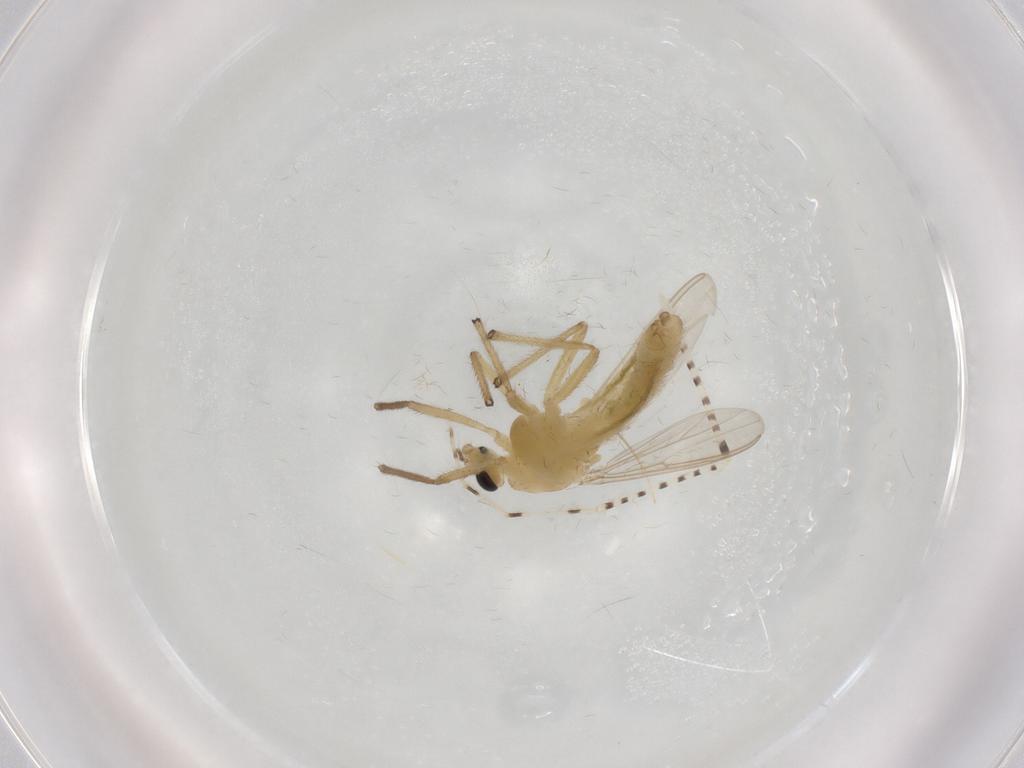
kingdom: Animalia
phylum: Arthropoda
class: Insecta
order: Diptera
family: Chironomidae
